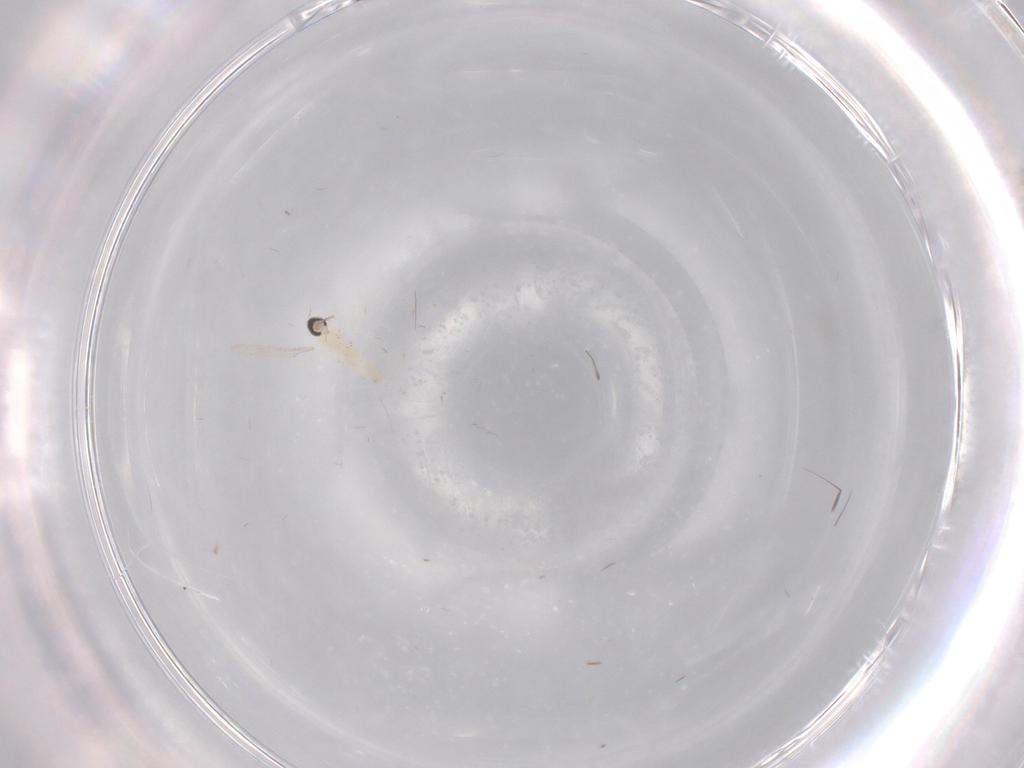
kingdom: Animalia
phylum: Arthropoda
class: Insecta
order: Diptera
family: Cecidomyiidae
